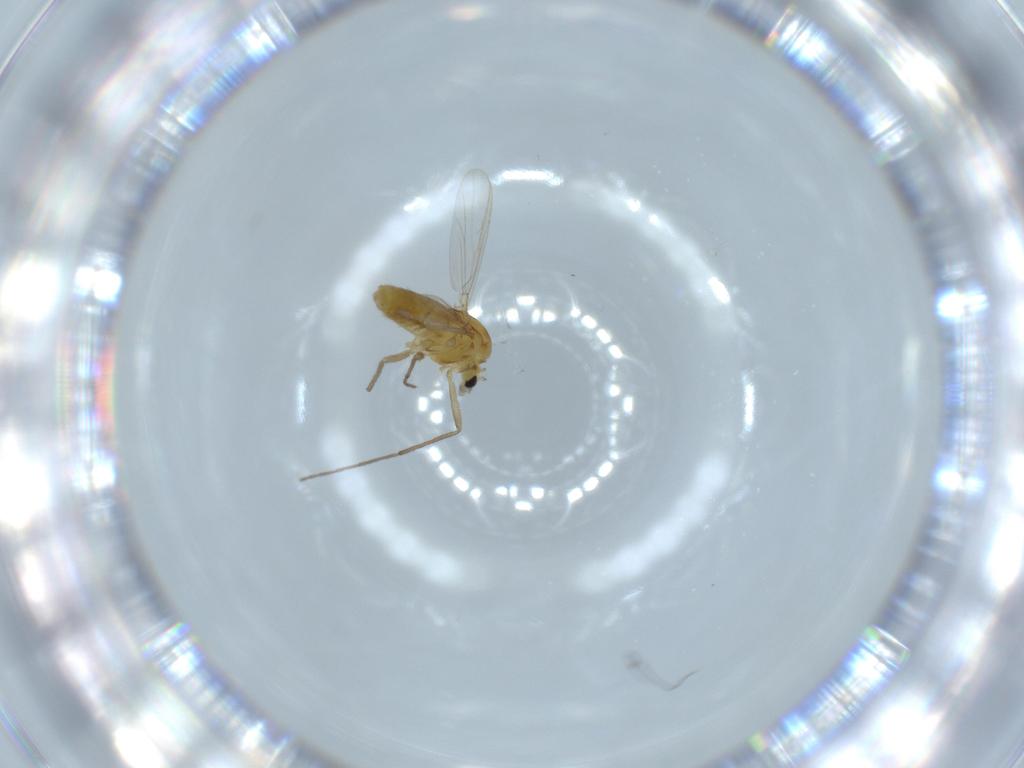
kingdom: Animalia
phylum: Arthropoda
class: Insecta
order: Diptera
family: Chironomidae
